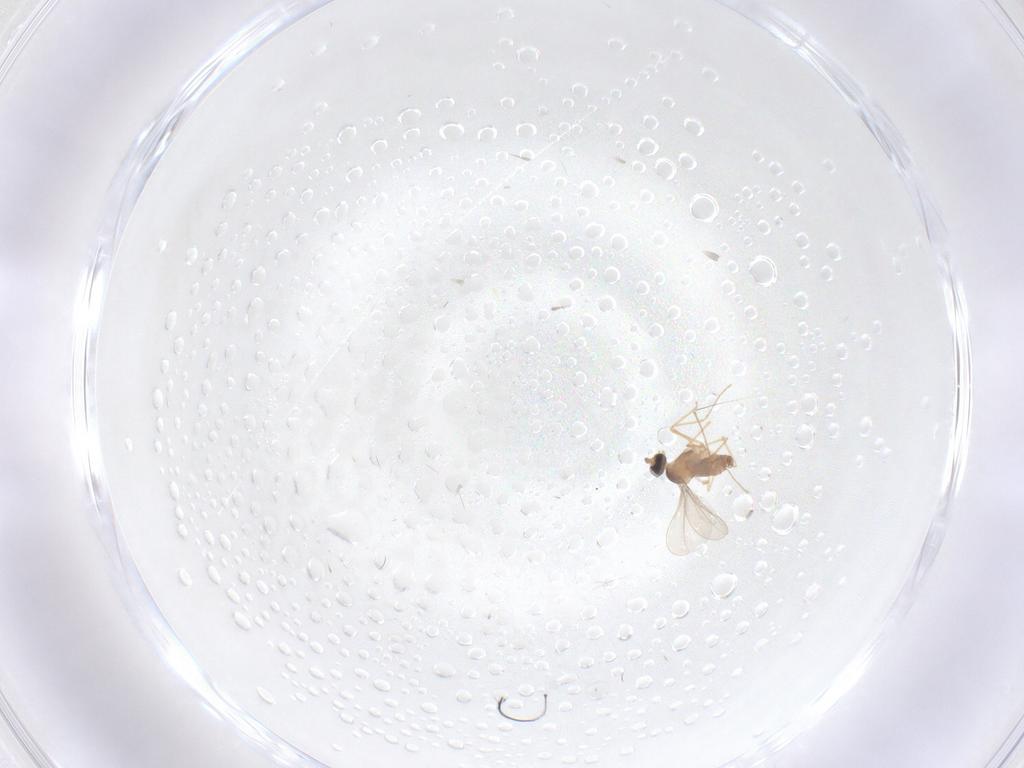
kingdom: Animalia
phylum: Arthropoda
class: Insecta
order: Diptera
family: Cecidomyiidae
